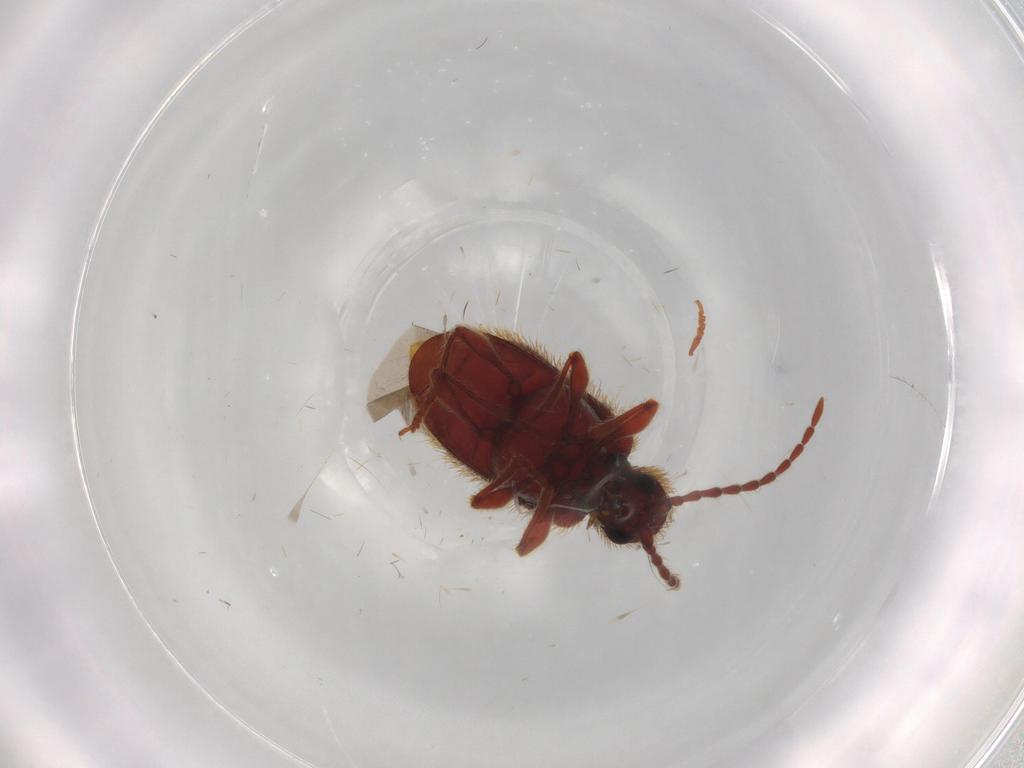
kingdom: Animalia
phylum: Arthropoda
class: Insecta
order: Coleoptera
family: Ptinidae
